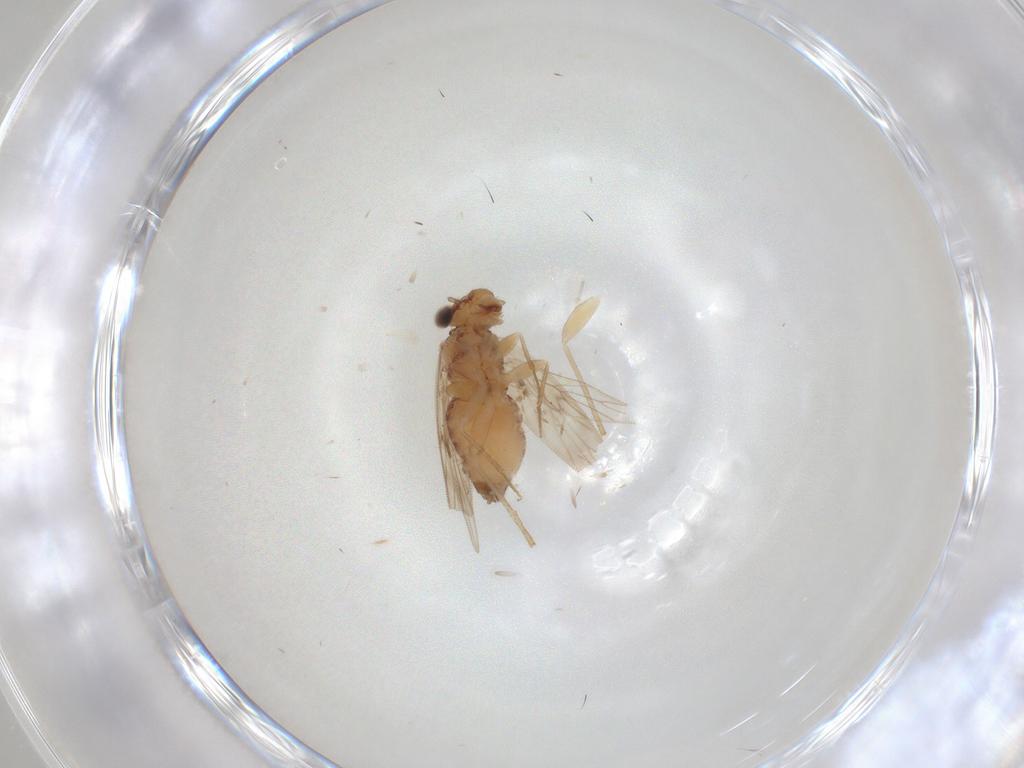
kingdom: Animalia
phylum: Arthropoda
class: Insecta
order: Psocodea
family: Lepidopsocidae
